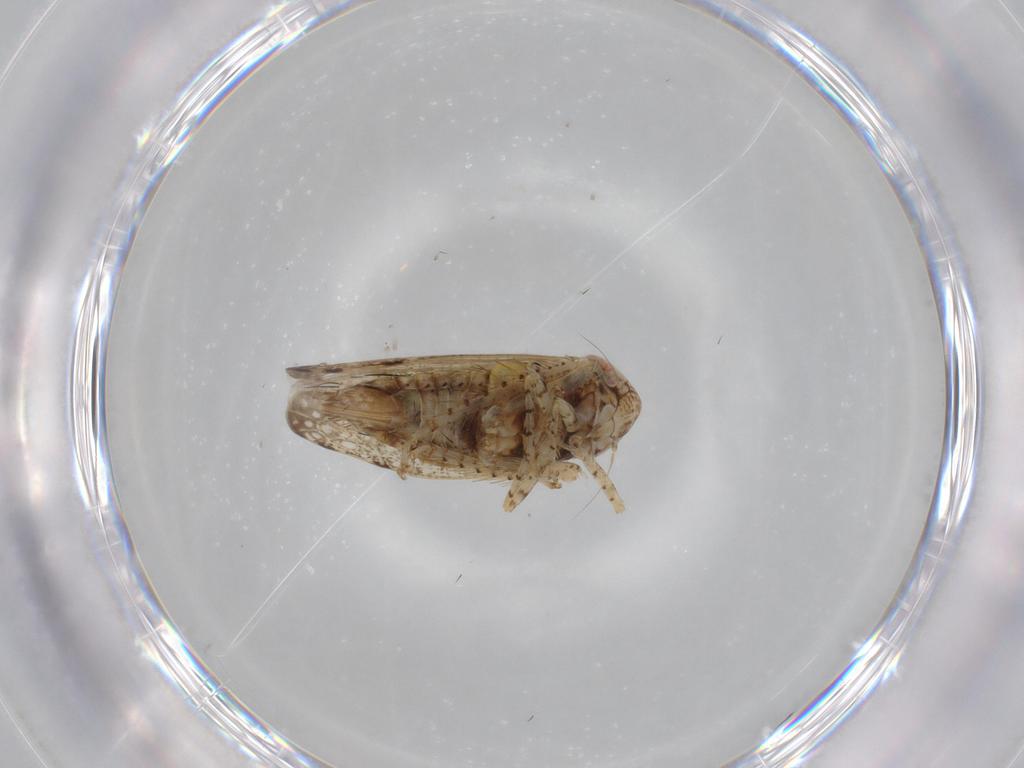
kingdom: Animalia
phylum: Arthropoda
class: Insecta
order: Hemiptera
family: Cicadellidae
